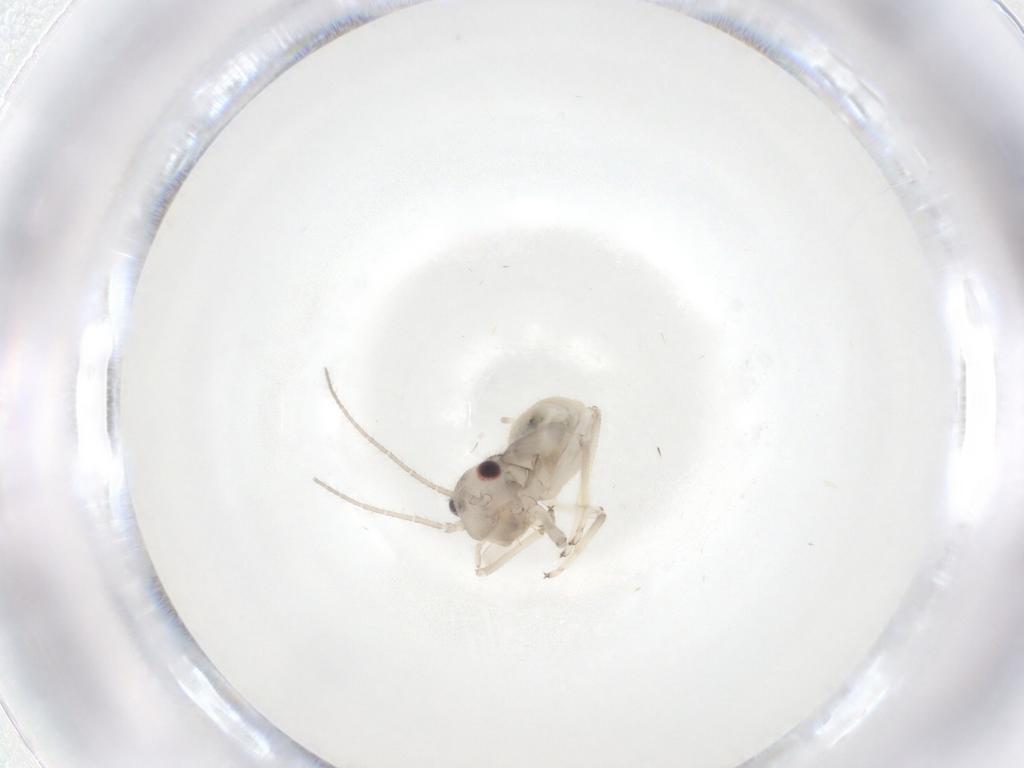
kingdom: Animalia
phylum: Arthropoda
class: Insecta
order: Psocodea
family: Amphipsocidae
